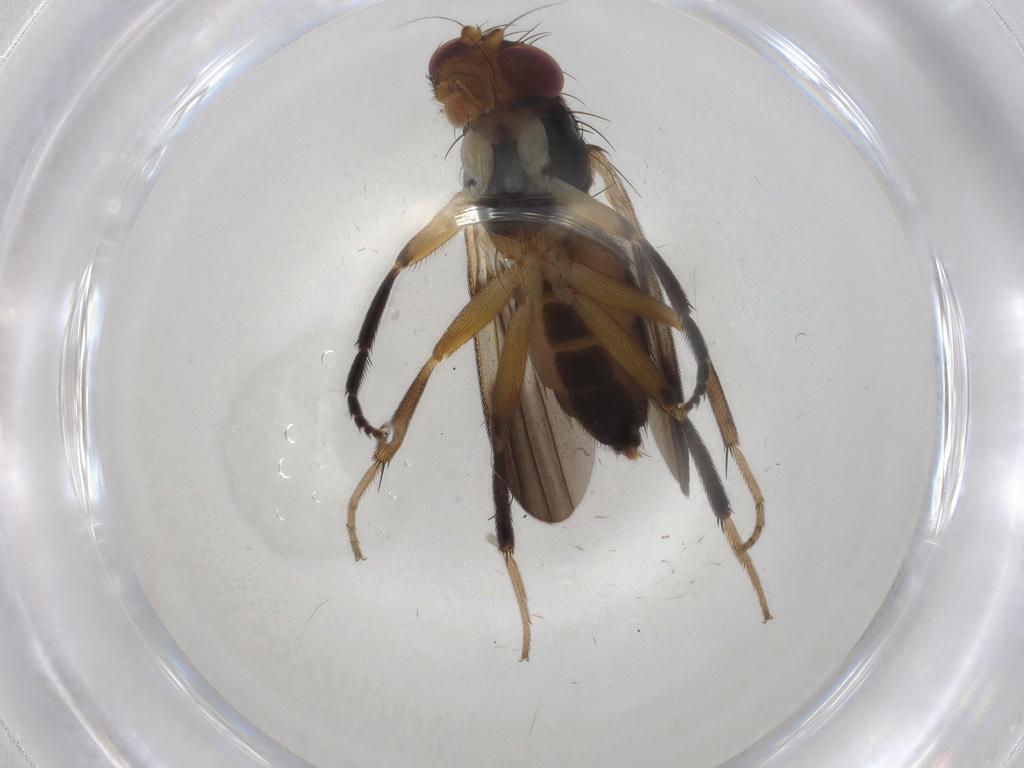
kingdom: Animalia
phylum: Arthropoda
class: Insecta
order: Diptera
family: Clusiidae
